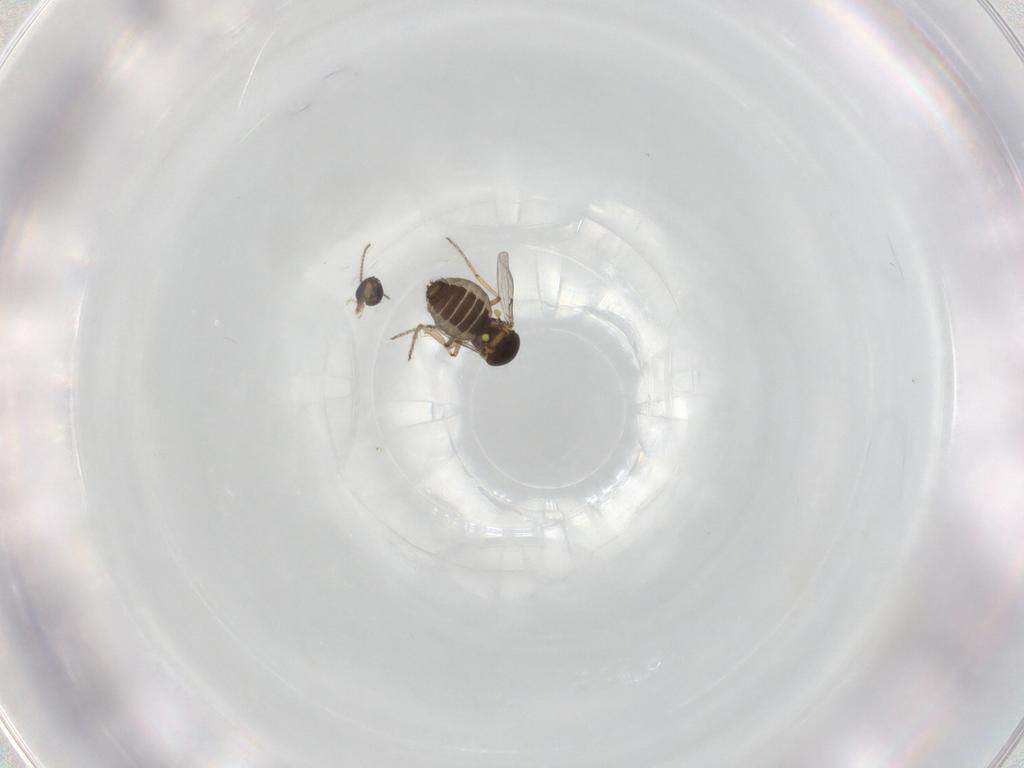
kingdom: Animalia
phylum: Arthropoda
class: Insecta
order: Diptera
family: Ceratopogonidae
